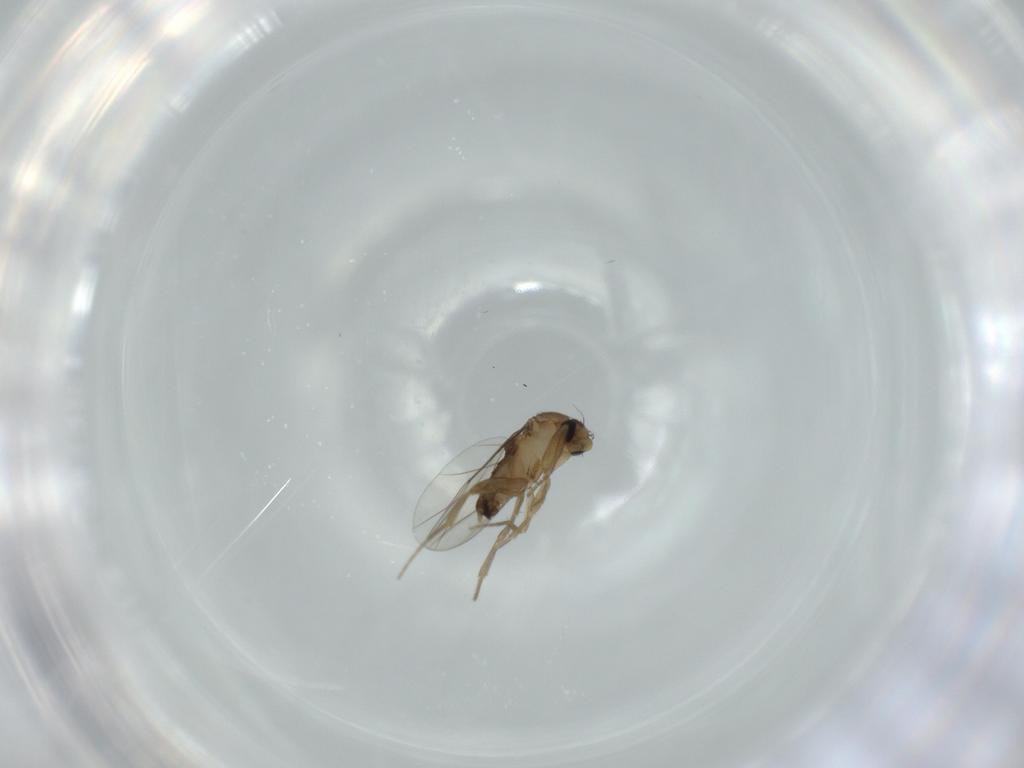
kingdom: Animalia
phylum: Arthropoda
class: Insecta
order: Diptera
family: Phoridae
